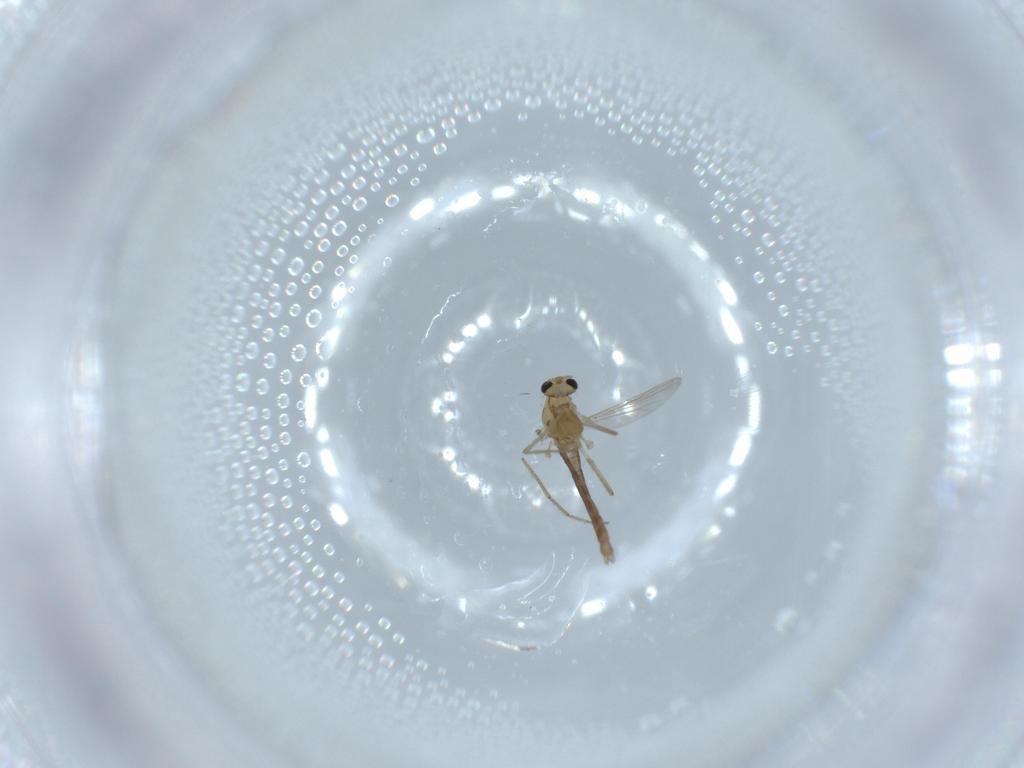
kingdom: Animalia
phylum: Arthropoda
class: Insecta
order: Diptera
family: Chironomidae
